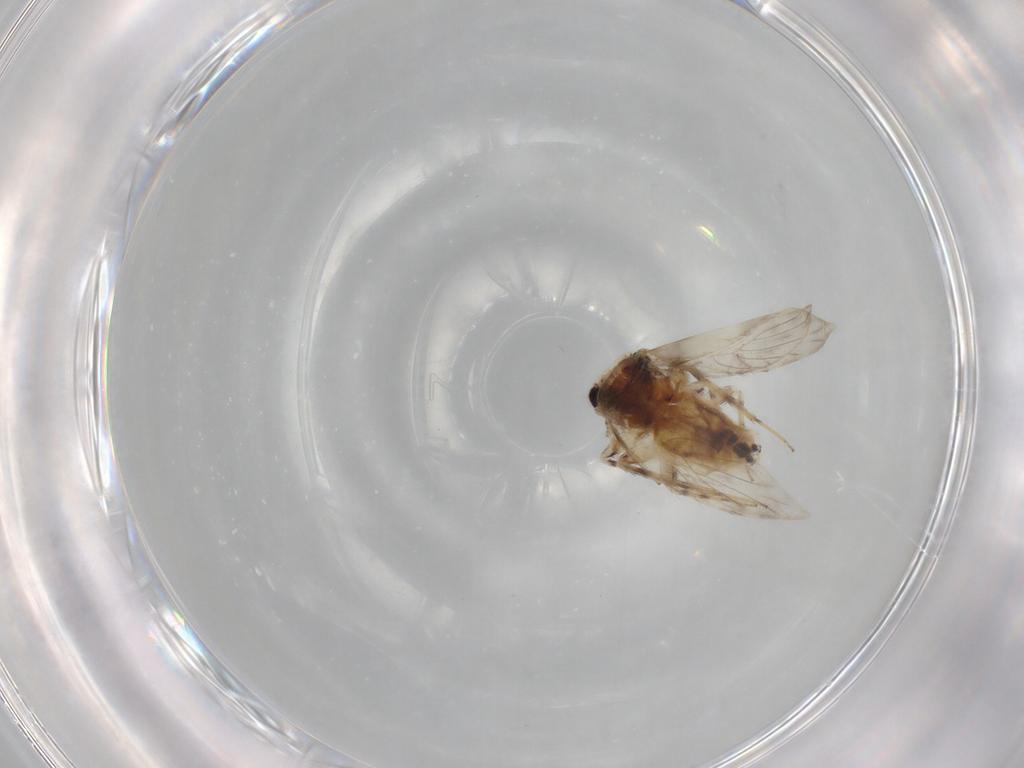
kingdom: Animalia
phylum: Arthropoda
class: Insecta
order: Psocodea
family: Lepidopsocidae
